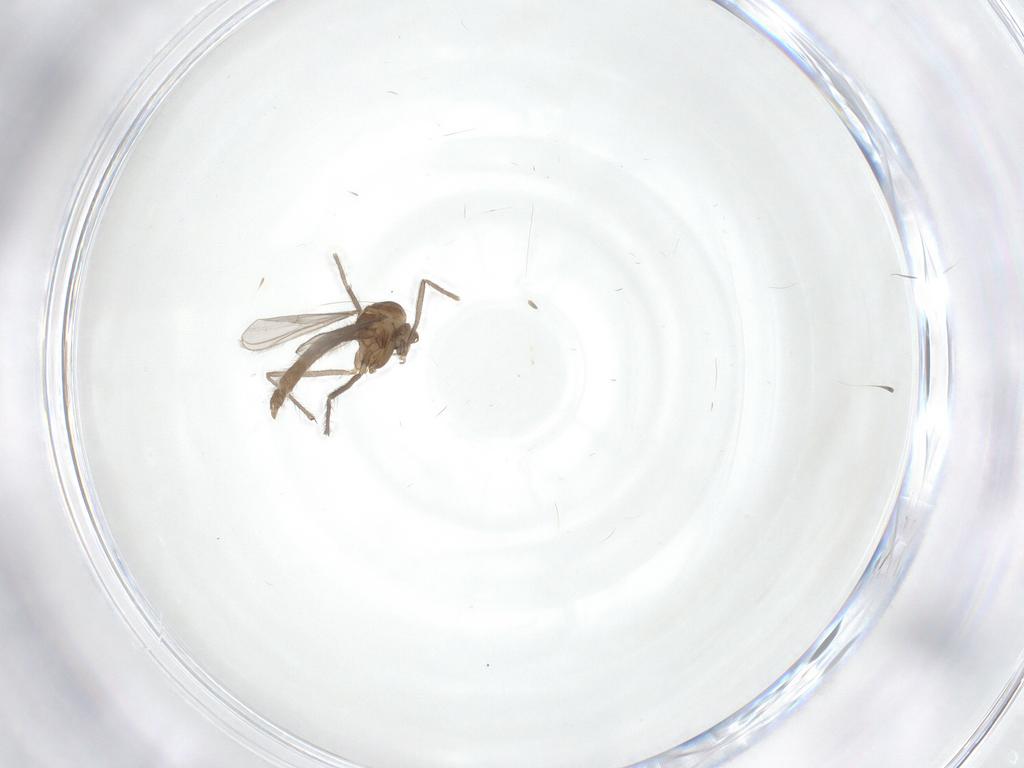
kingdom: Animalia
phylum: Arthropoda
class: Insecta
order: Diptera
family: Chironomidae
